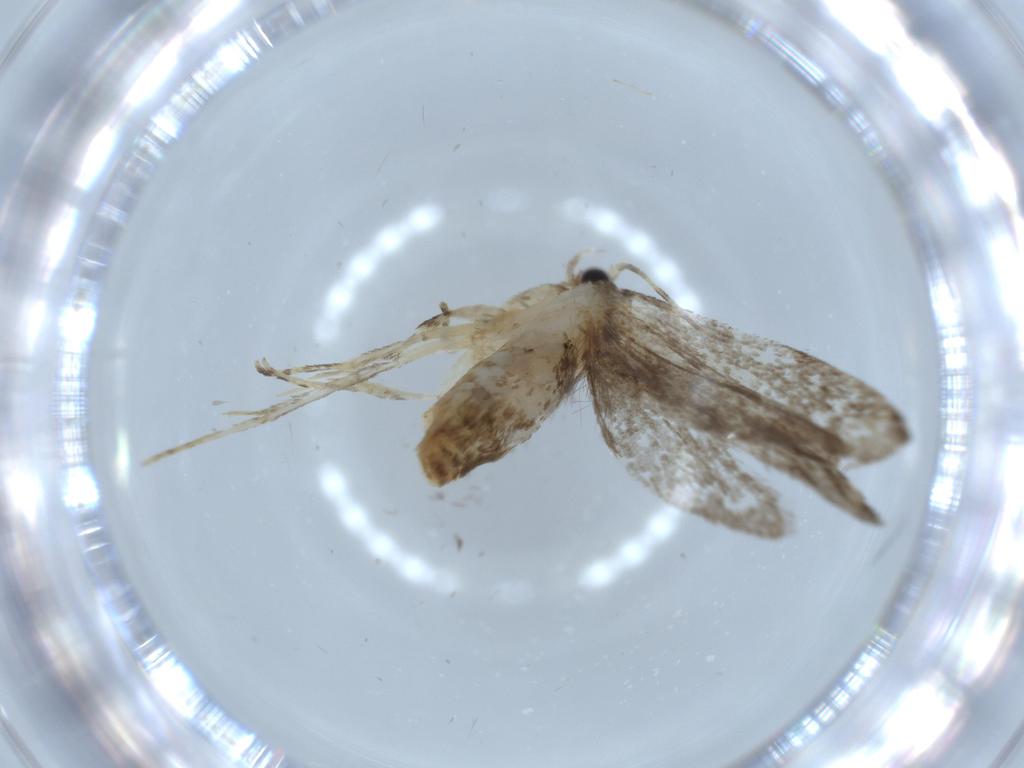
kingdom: Animalia
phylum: Arthropoda
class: Insecta
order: Lepidoptera
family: Tineidae
